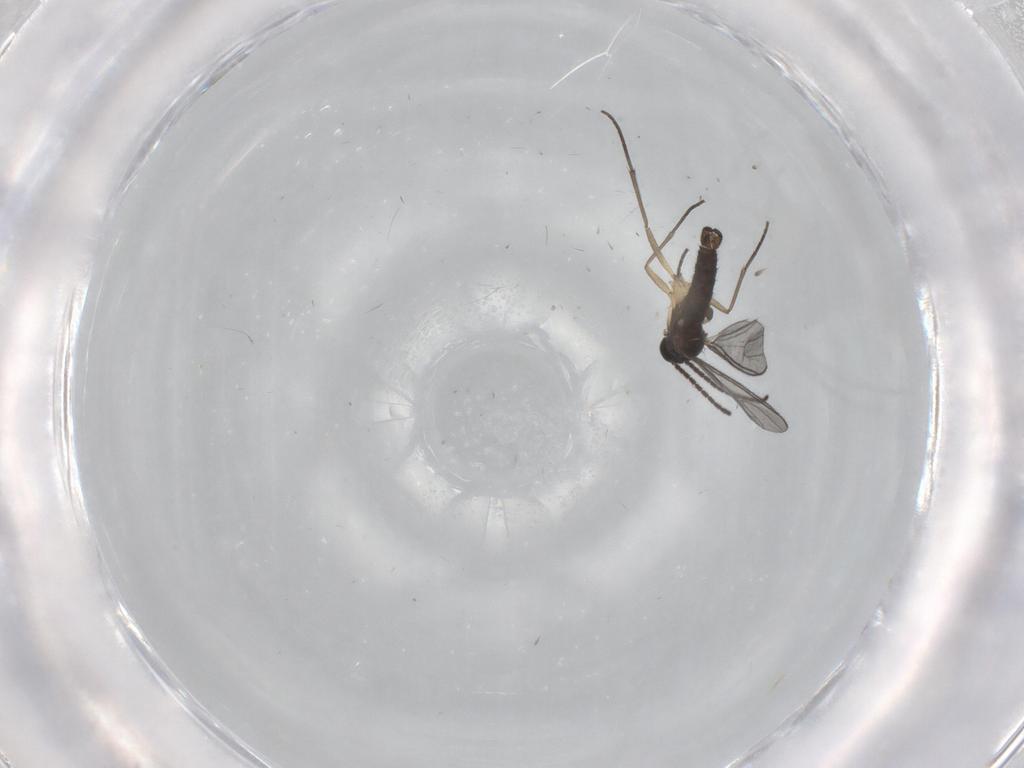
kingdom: Animalia
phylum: Arthropoda
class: Insecta
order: Diptera
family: Sciaridae
